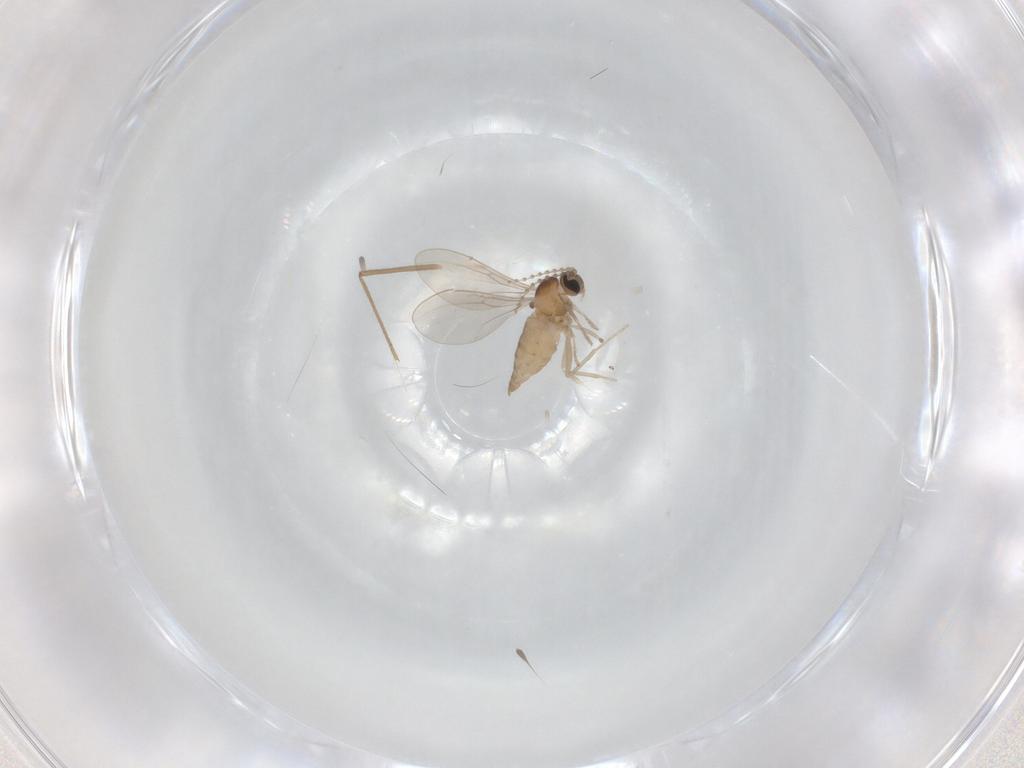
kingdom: Animalia
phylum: Arthropoda
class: Insecta
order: Diptera
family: Chironomidae
